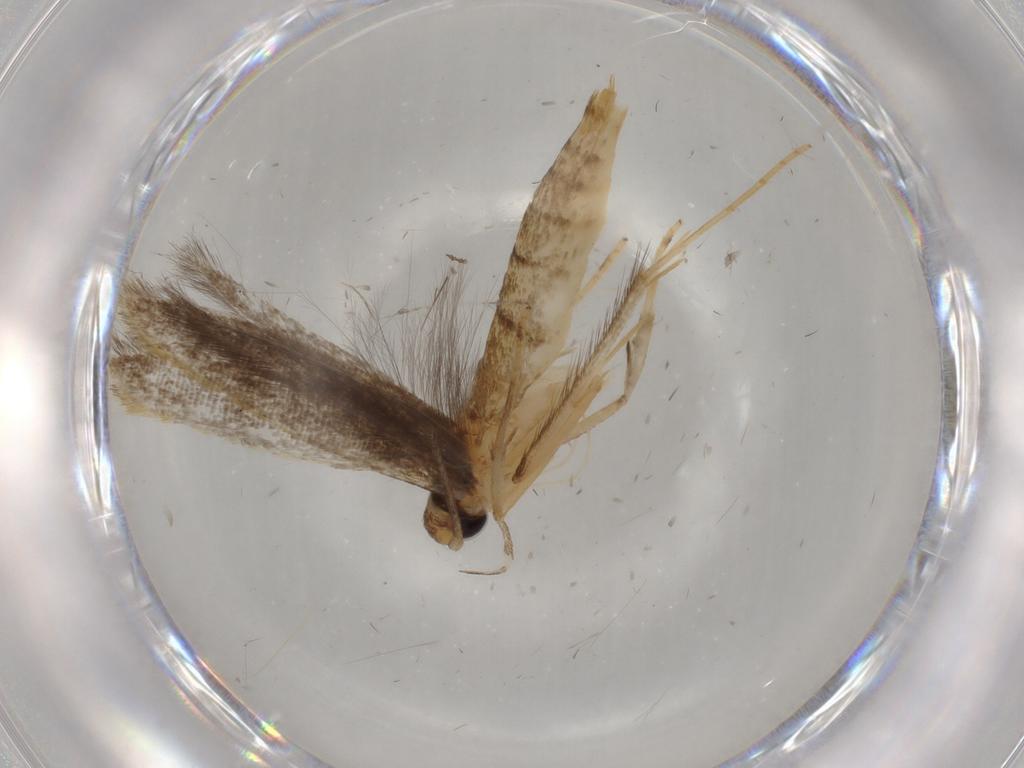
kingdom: Animalia
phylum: Arthropoda
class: Insecta
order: Lepidoptera
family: Pterolonchidae
